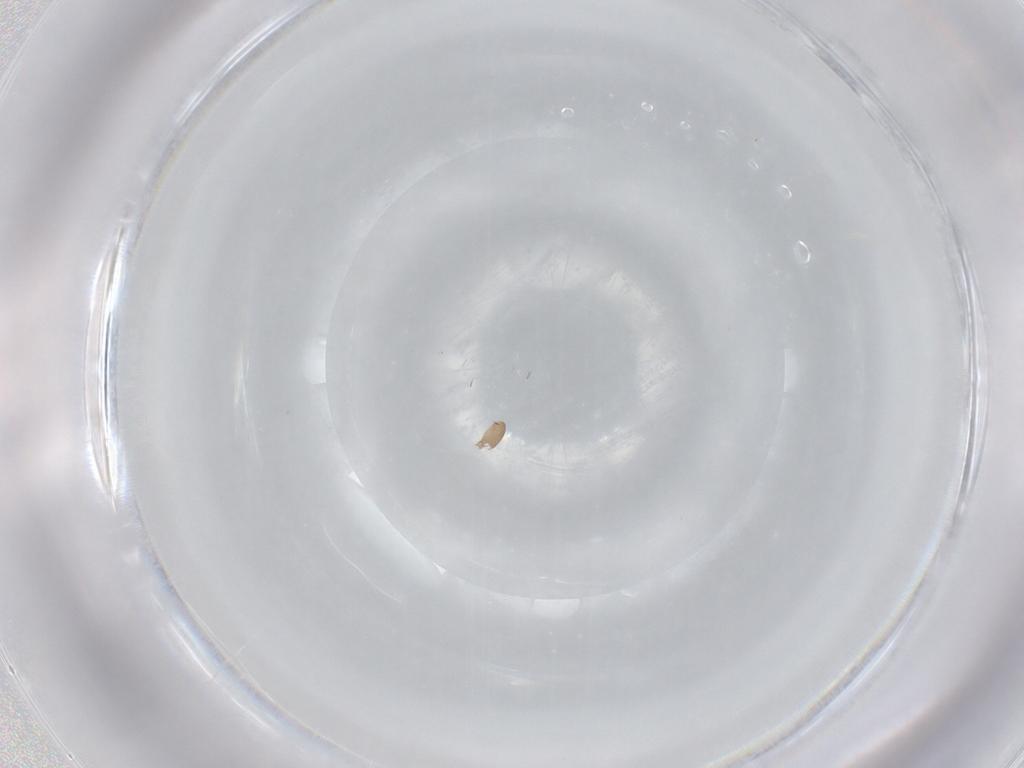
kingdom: Animalia
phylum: Arthropoda
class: Arachnida
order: Trombidiformes
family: Anystidae
